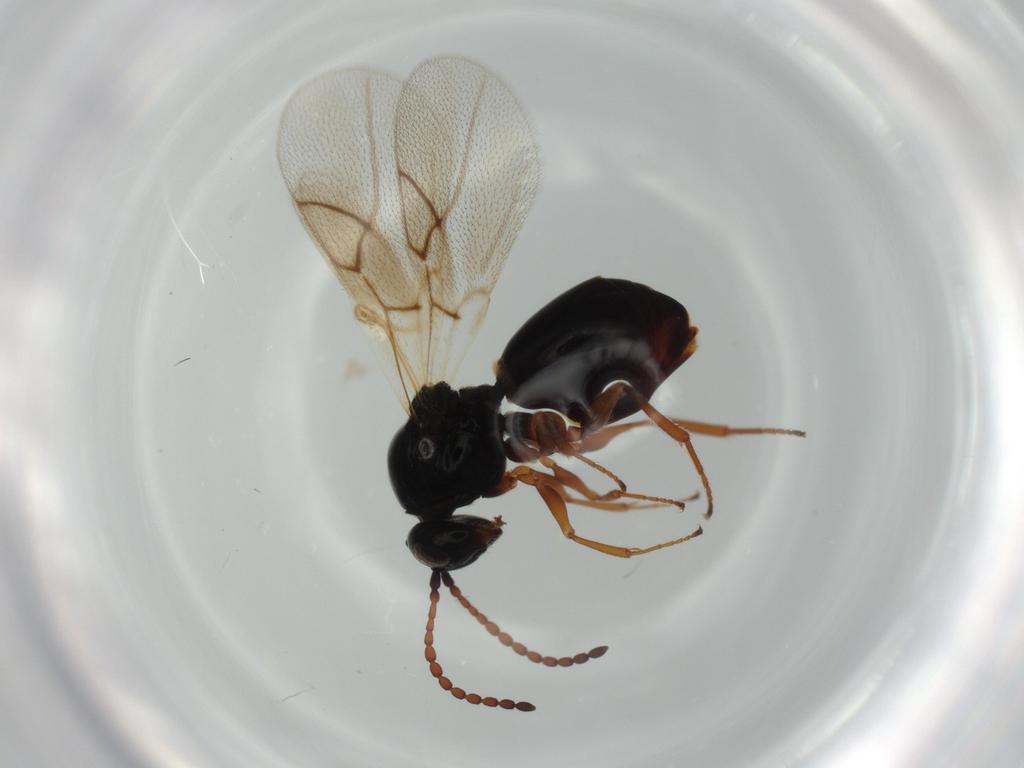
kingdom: Animalia
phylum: Arthropoda
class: Insecta
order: Hymenoptera
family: Figitidae
